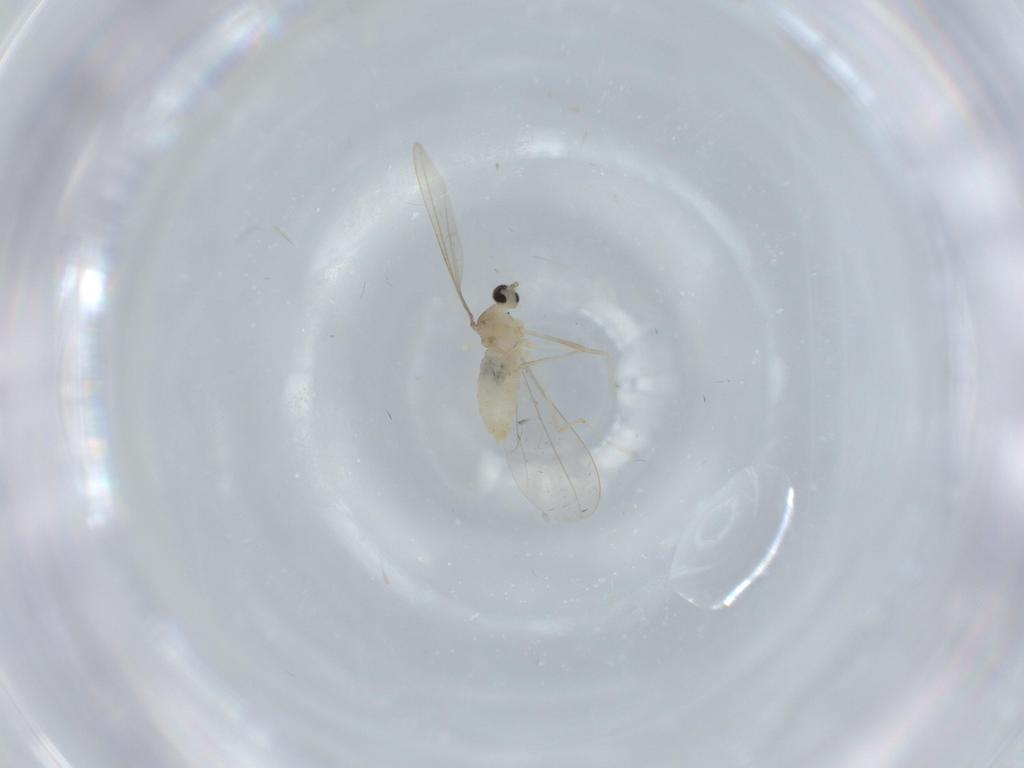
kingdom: Animalia
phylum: Arthropoda
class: Insecta
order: Diptera
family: Cecidomyiidae
